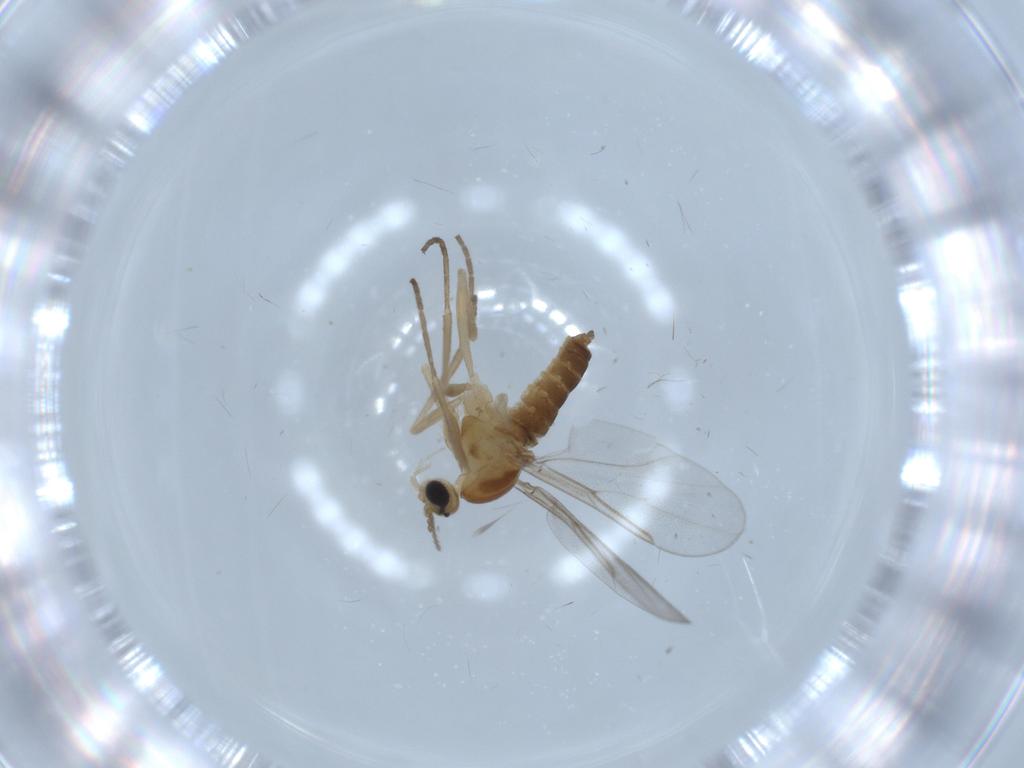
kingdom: Animalia
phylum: Arthropoda
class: Insecta
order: Diptera
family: Cecidomyiidae
